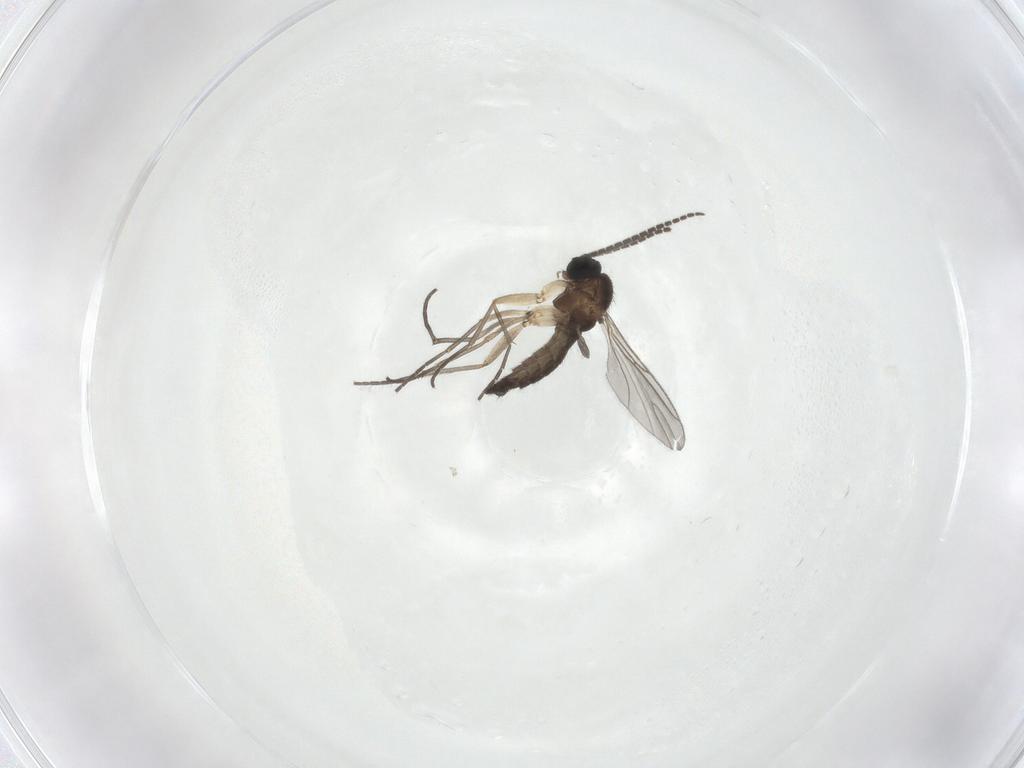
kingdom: Animalia
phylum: Arthropoda
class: Insecta
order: Diptera
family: Sciaridae
